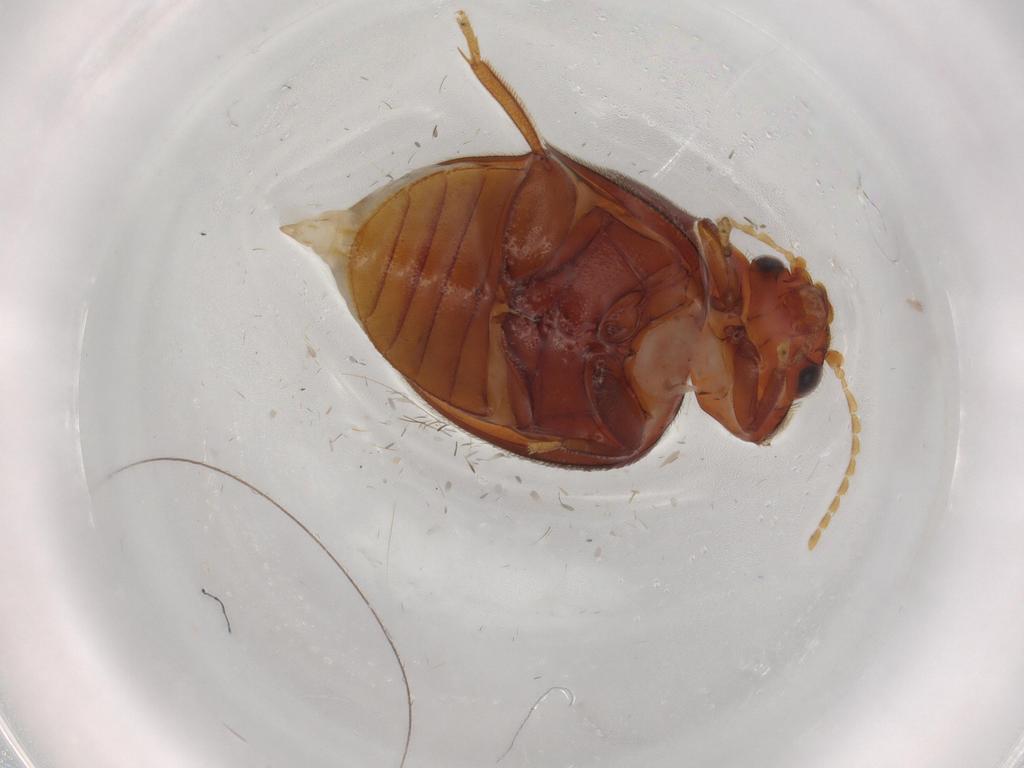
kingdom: Animalia
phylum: Arthropoda
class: Insecta
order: Coleoptera
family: Scirtidae
